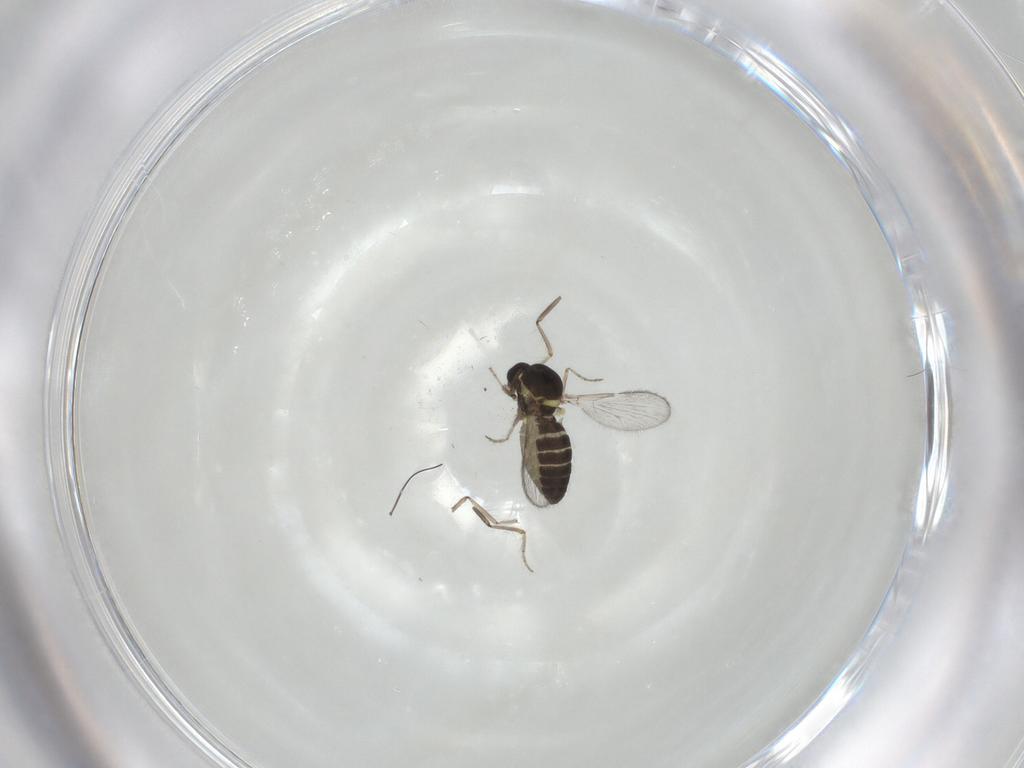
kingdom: Animalia
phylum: Arthropoda
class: Insecta
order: Diptera
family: Ceratopogonidae
